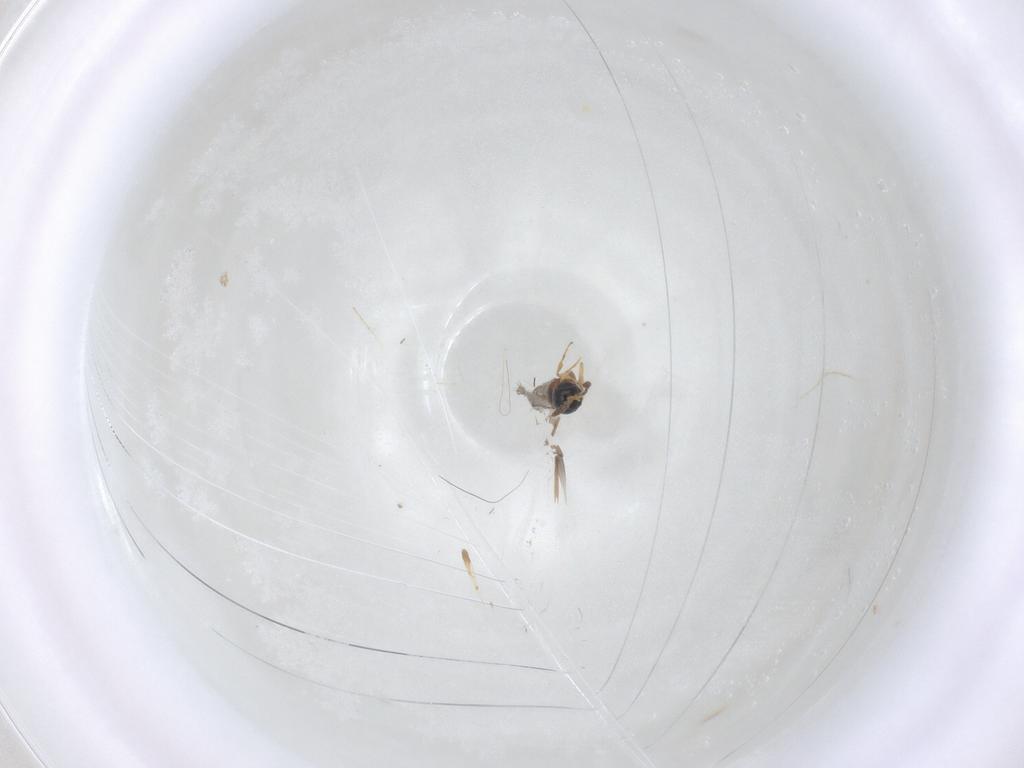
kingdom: Animalia
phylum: Arthropoda
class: Insecta
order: Hymenoptera
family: Scelionidae
